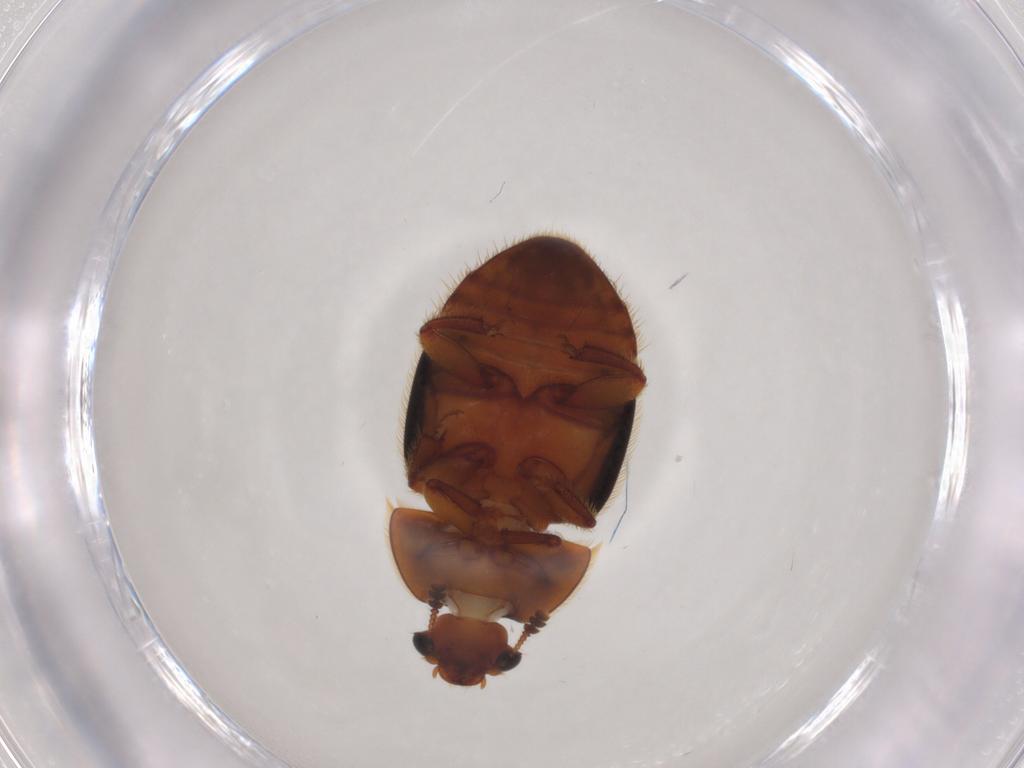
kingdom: Animalia
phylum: Arthropoda
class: Insecta
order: Coleoptera
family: Nitidulidae
